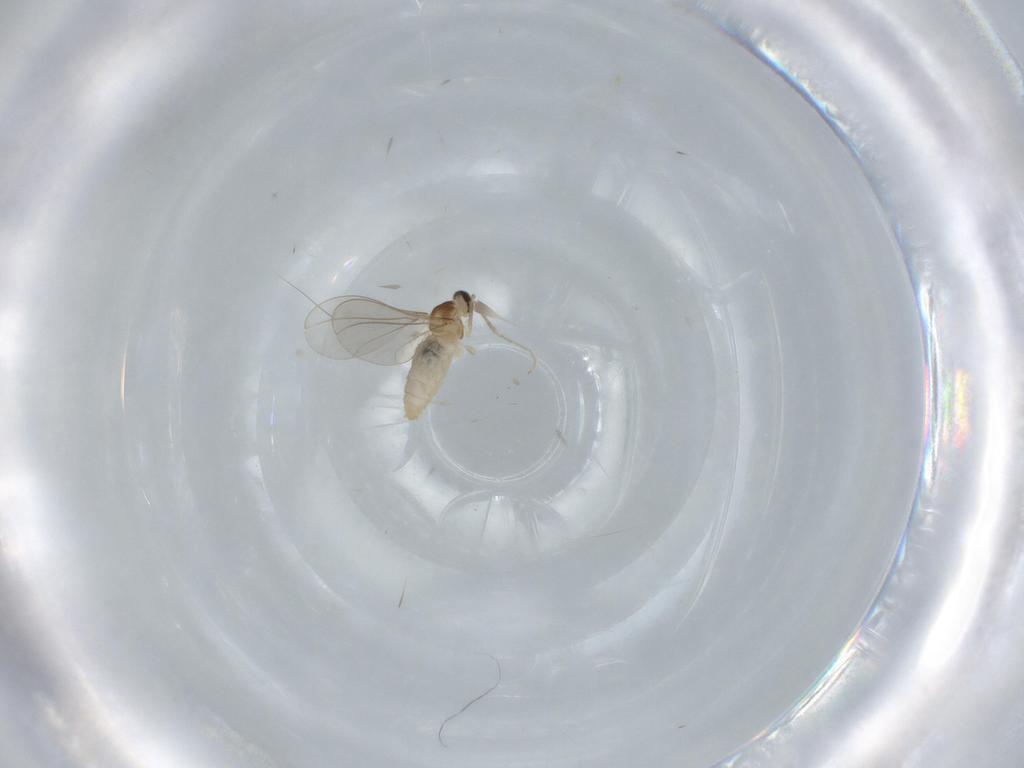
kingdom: Animalia
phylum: Arthropoda
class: Insecta
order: Diptera
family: Cecidomyiidae
